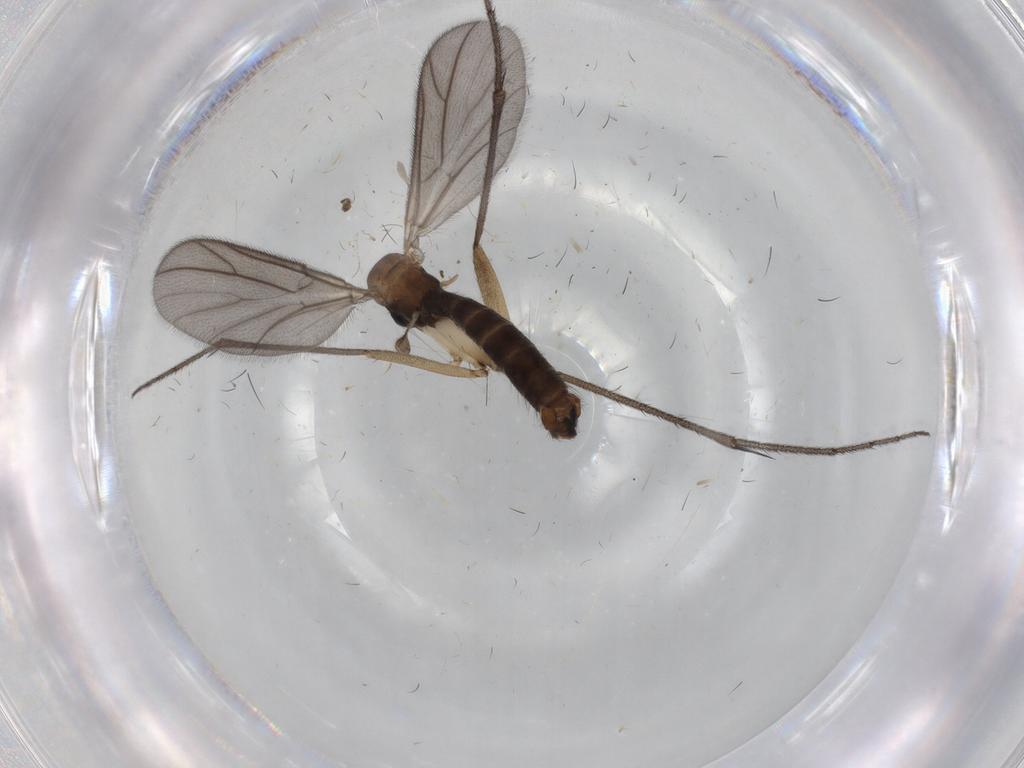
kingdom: Animalia
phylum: Arthropoda
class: Insecta
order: Diptera
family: Ditomyiidae
